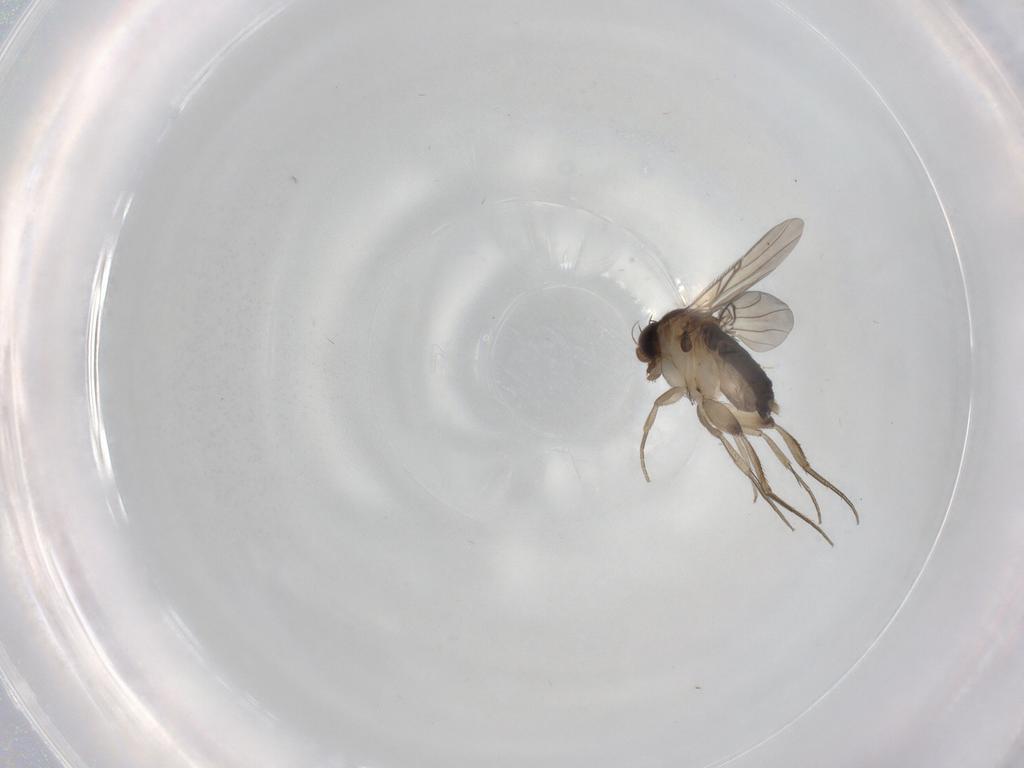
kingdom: Animalia
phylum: Arthropoda
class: Insecta
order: Diptera
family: Phoridae
